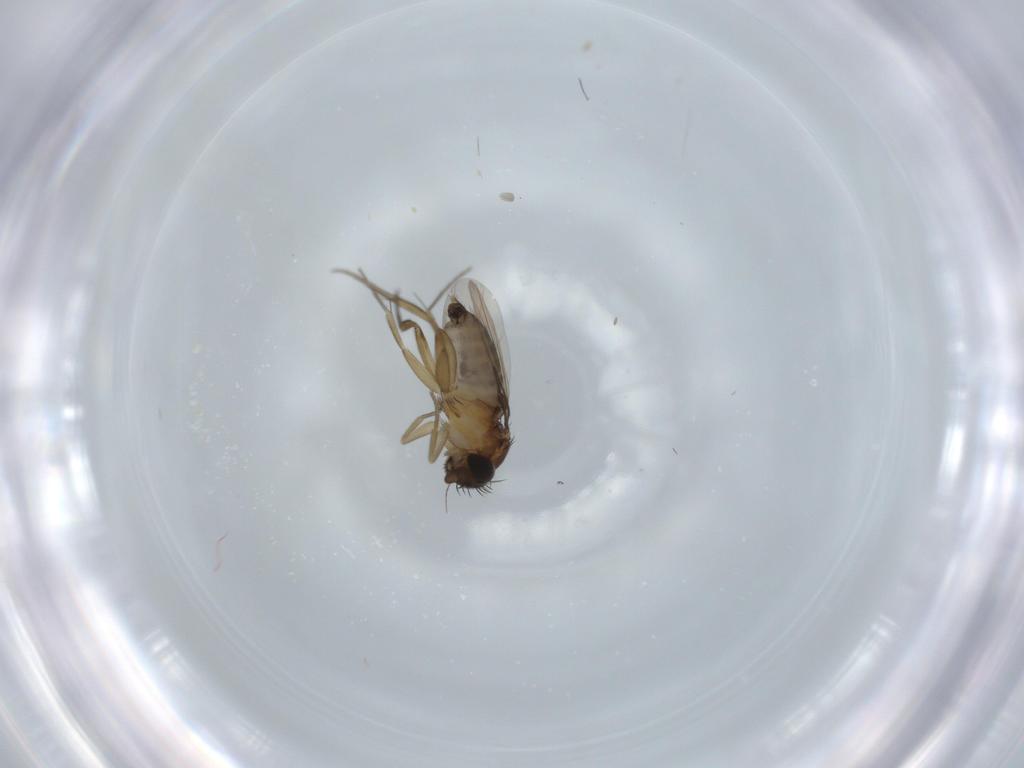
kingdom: Animalia
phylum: Arthropoda
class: Insecta
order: Diptera
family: Phoridae
